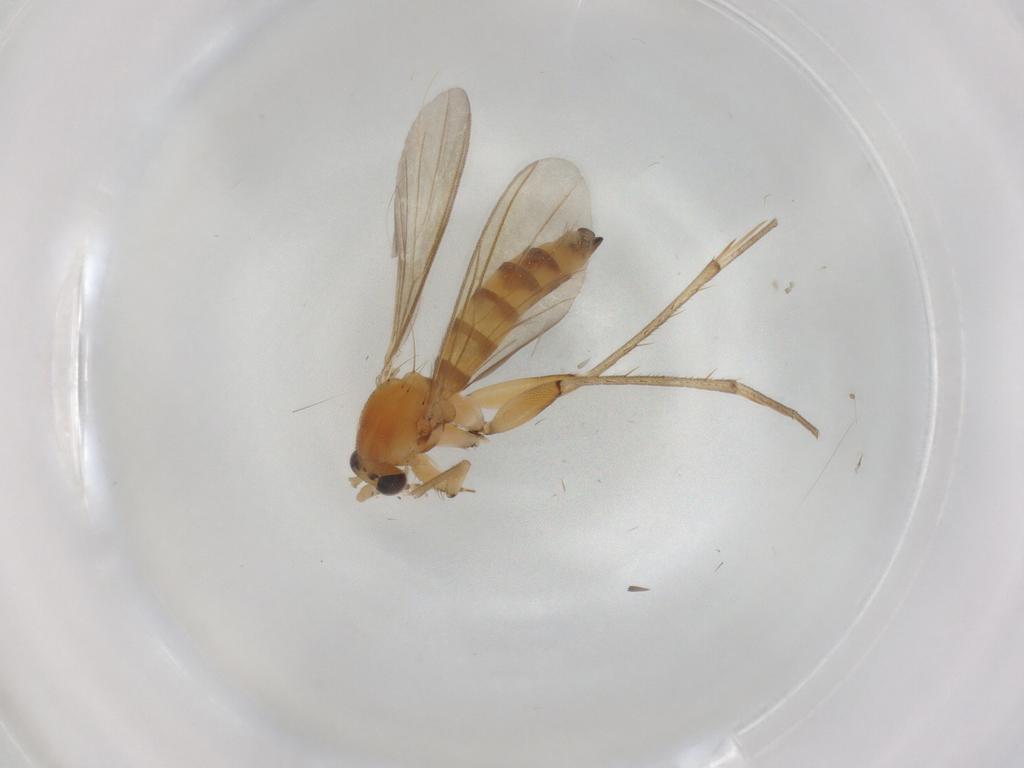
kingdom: Animalia
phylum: Arthropoda
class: Insecta
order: Diptera
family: Mycetophilidae
